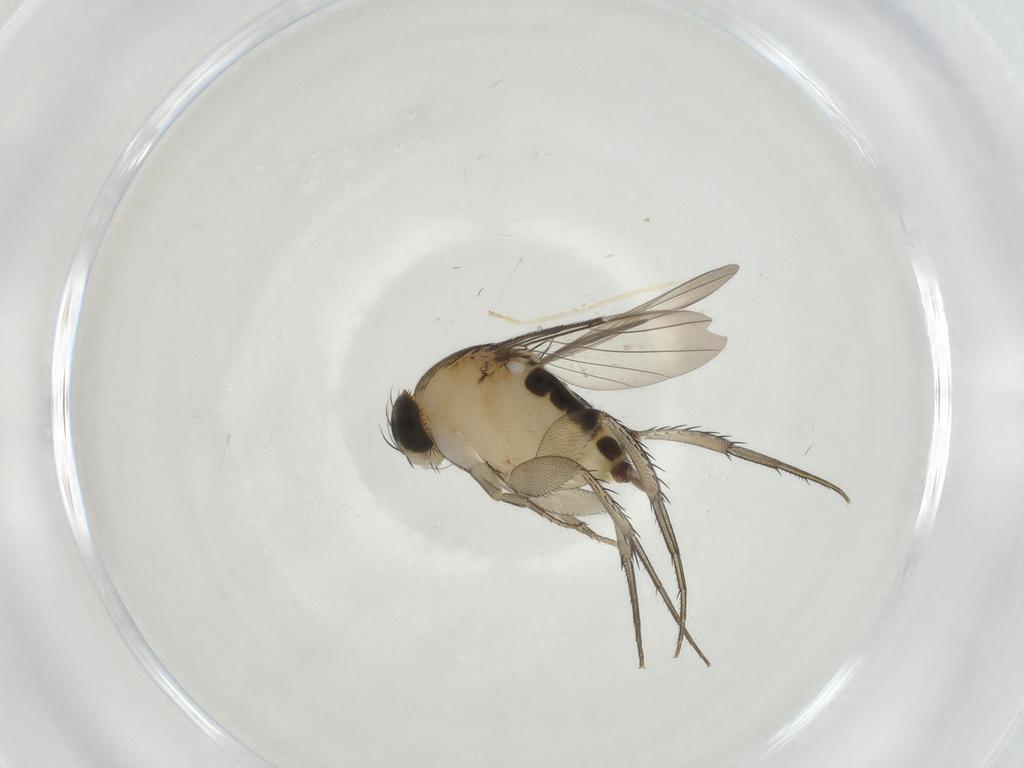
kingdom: Animalia
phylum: Arthropoda
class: Insecta
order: Diptera
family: Phoridae
